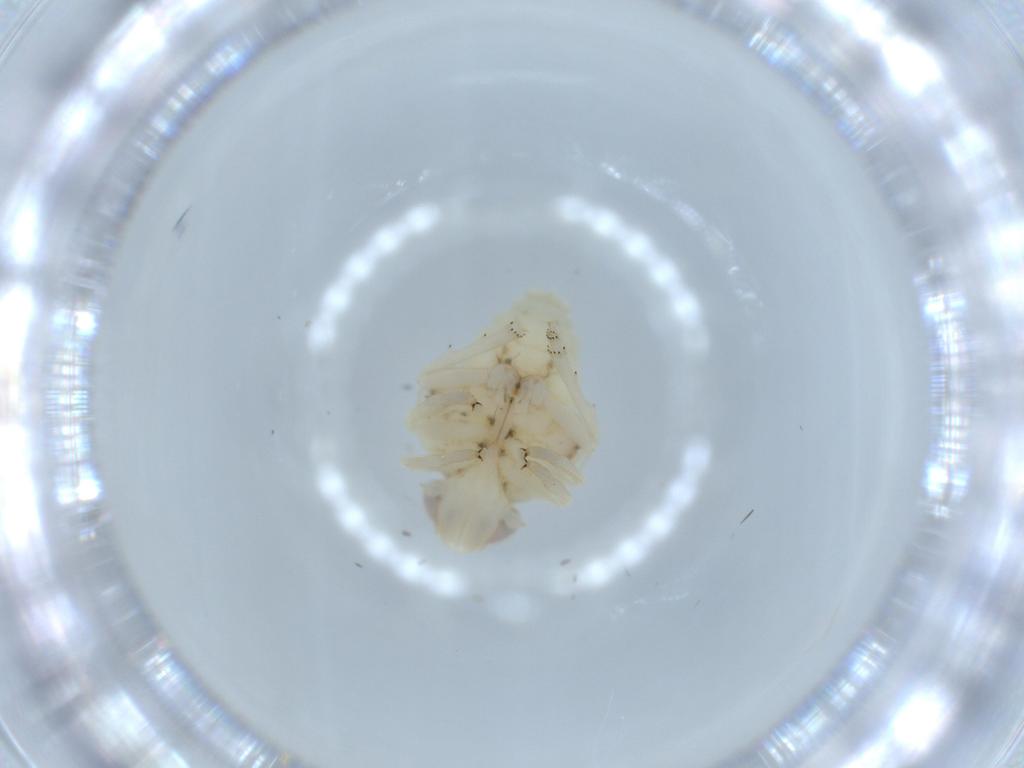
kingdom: Animalia
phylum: Arthropoda
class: Insecta
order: Hemiptera
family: Nogodinidae
